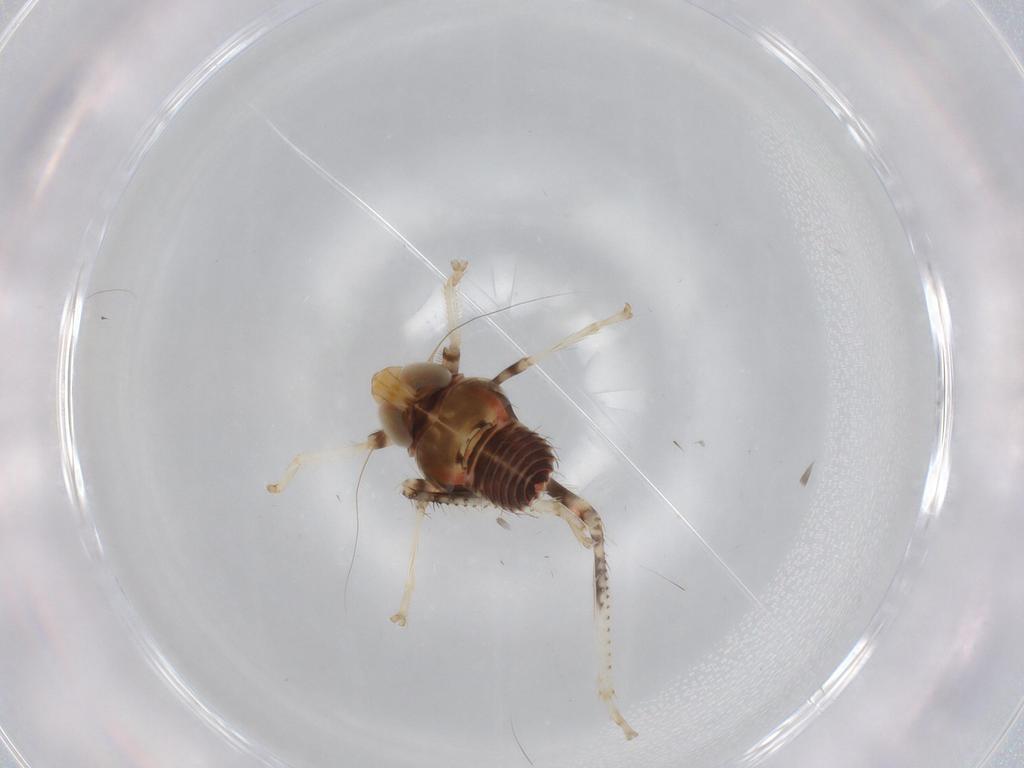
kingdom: Animalia
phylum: Arthropoda
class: Insecta
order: Hemiptera
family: Cicadellidae
